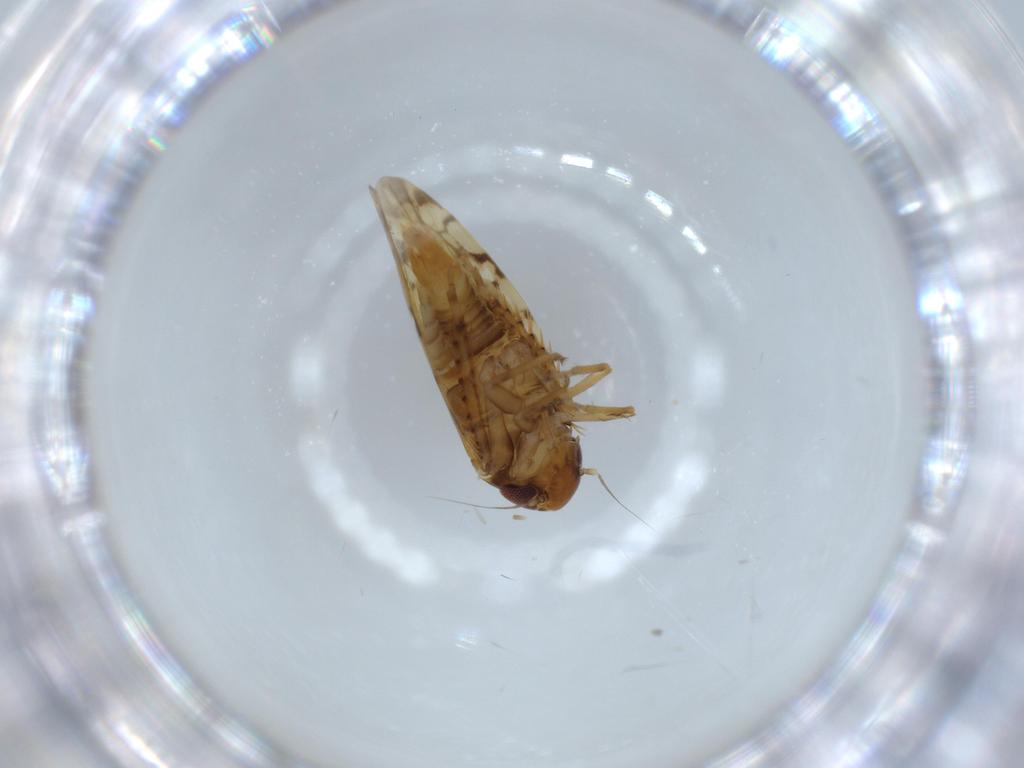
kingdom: Animalia
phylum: Arthropoda
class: Insecta
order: Hemiptera
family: Cicadellidae
